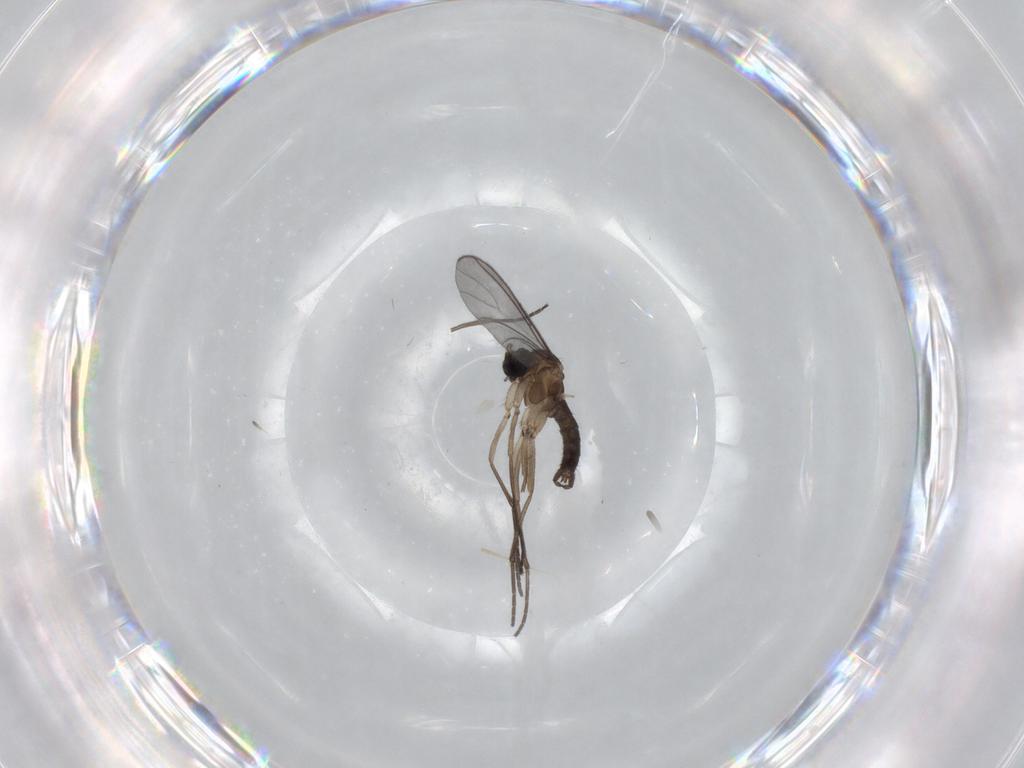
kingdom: Animalia
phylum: Arthropoda
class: Insecta
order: Diptera
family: Sciaridae
